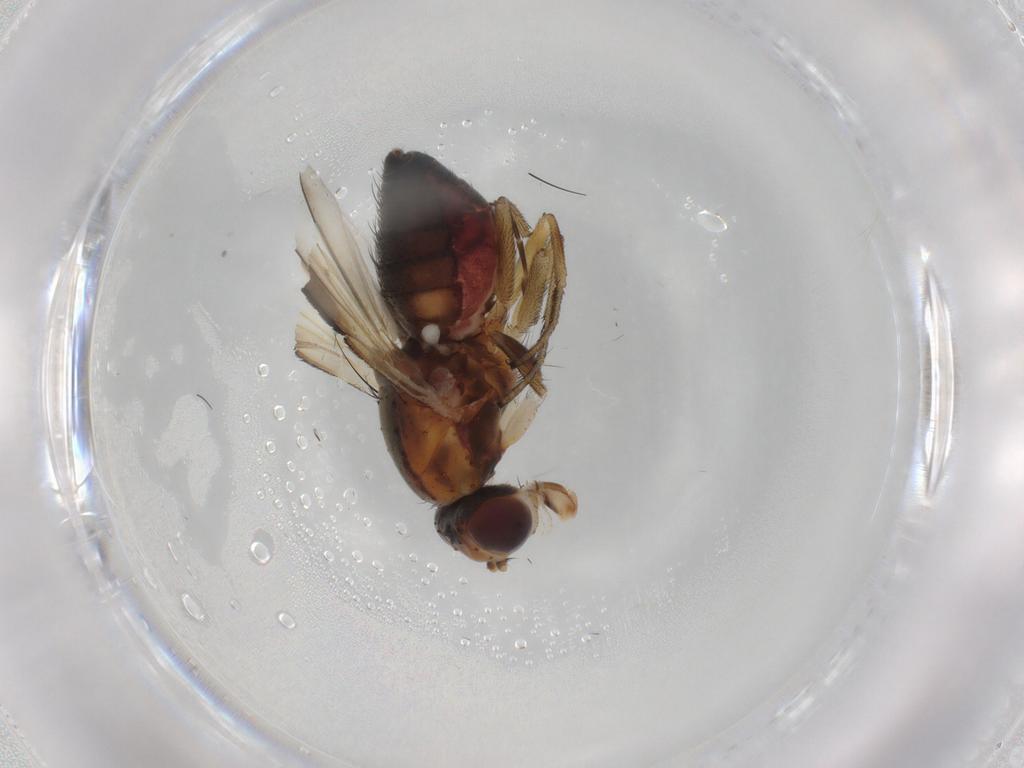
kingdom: Animalia
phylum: Arthropoda
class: Insecta
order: Diptera
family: Heleomyzidae
